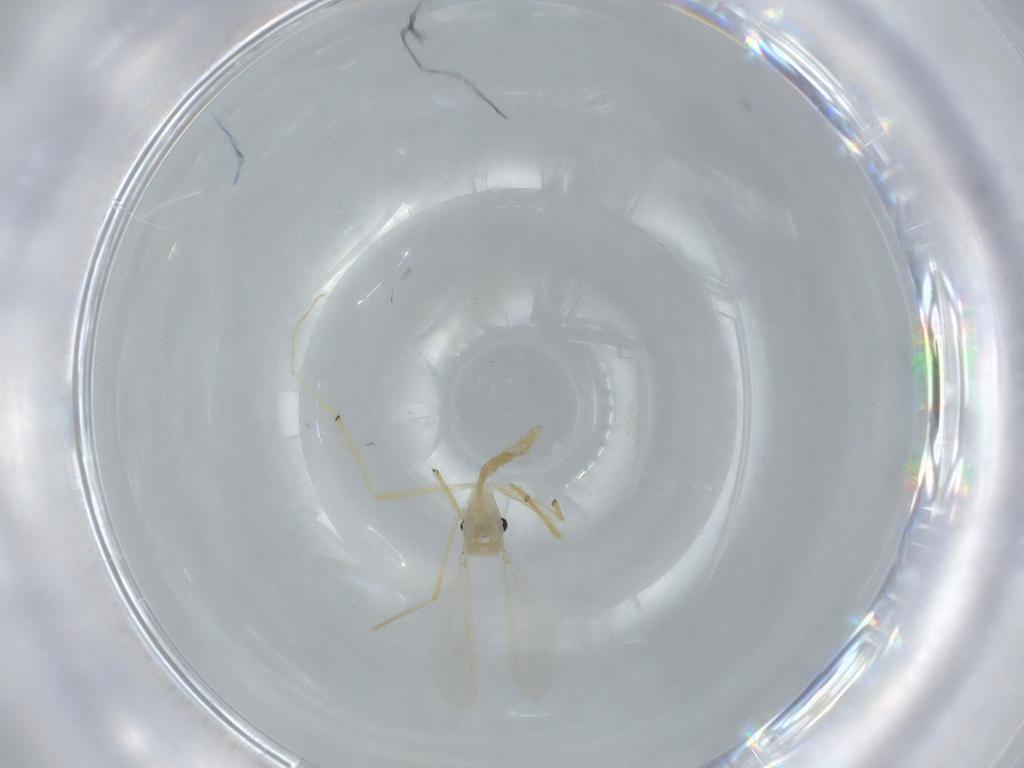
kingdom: Animalia
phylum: Arthropoda
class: Insecta
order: Diptera
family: Chironomidae
